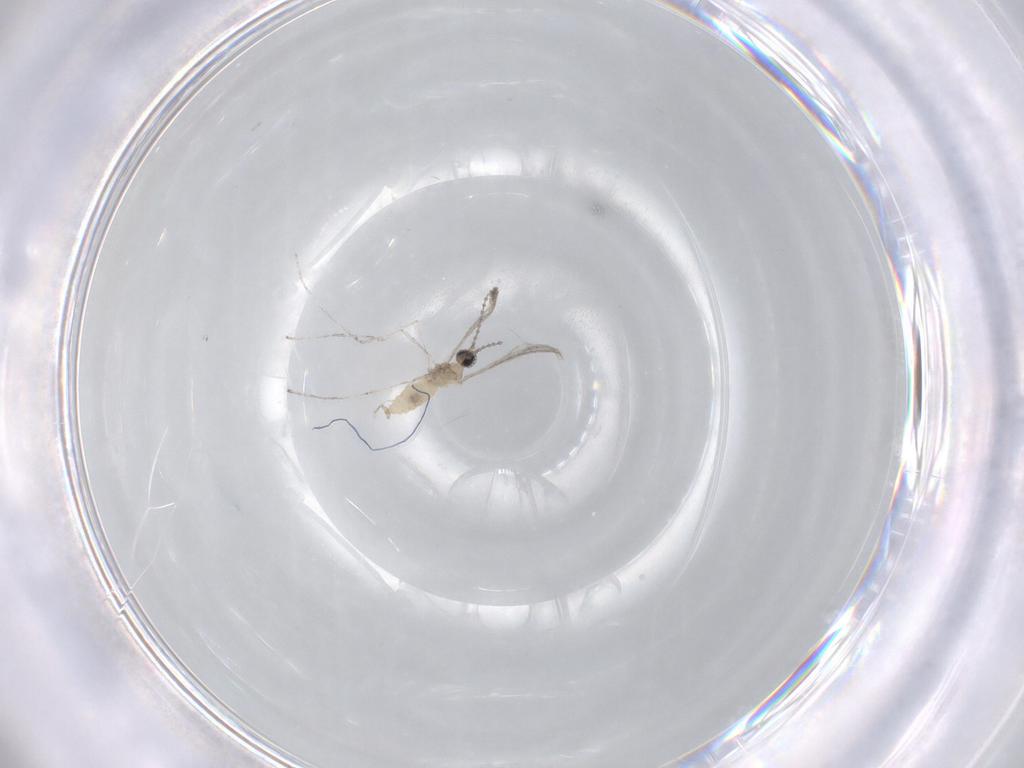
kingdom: Animalia
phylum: Arthropoda
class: Insecta
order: Diptera
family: Cecidomyiidae
